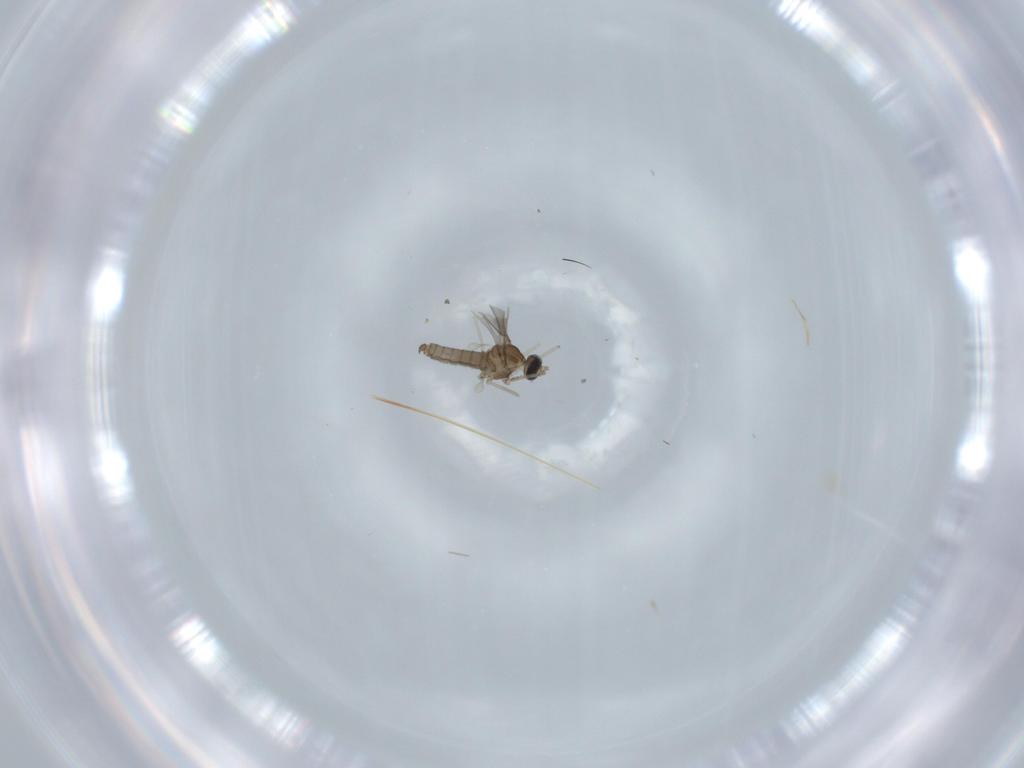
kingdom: Animalia
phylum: Arthropoda
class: Insecta
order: Diptera
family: Cecidomyiidae
